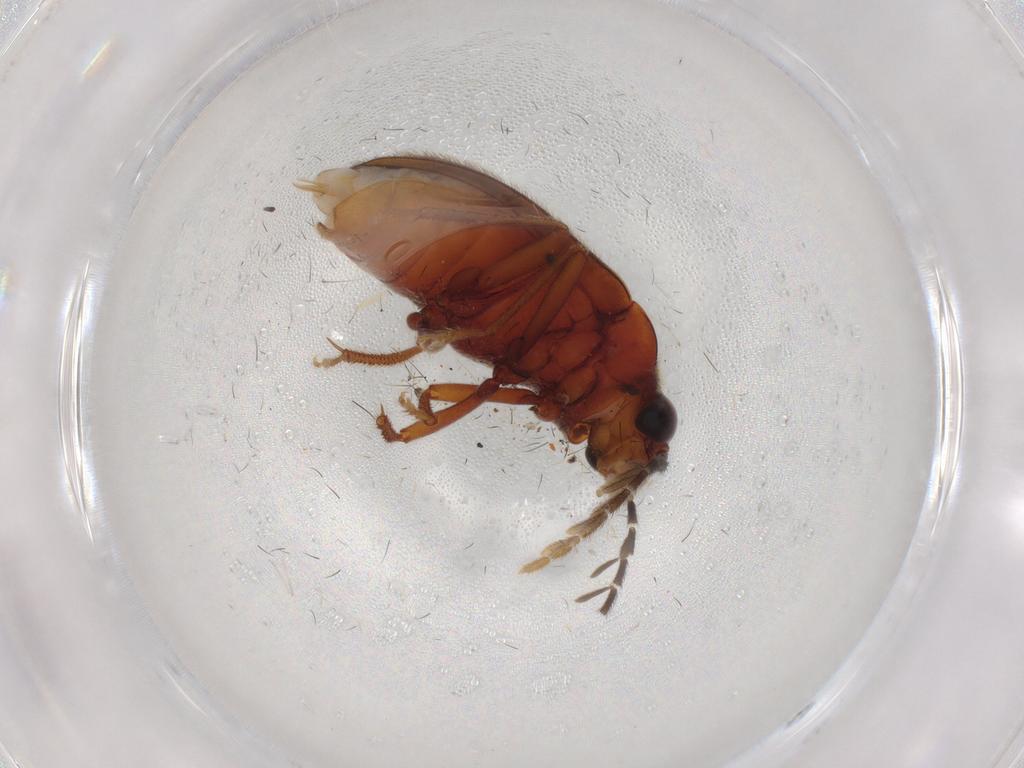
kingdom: Animalia
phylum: Arthropoda
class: Insecta
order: Coleoptera
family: Ptilodactylidae
